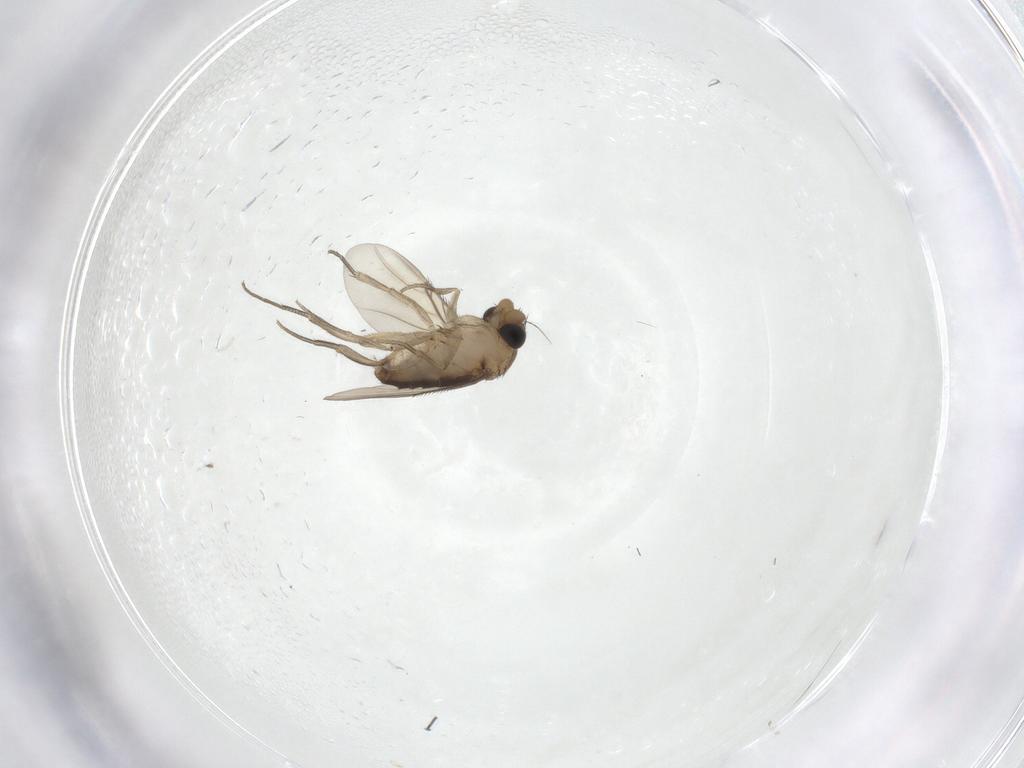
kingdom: Animalia
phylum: Arthropoda
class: Insecta
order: Diptera
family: Phoridae
